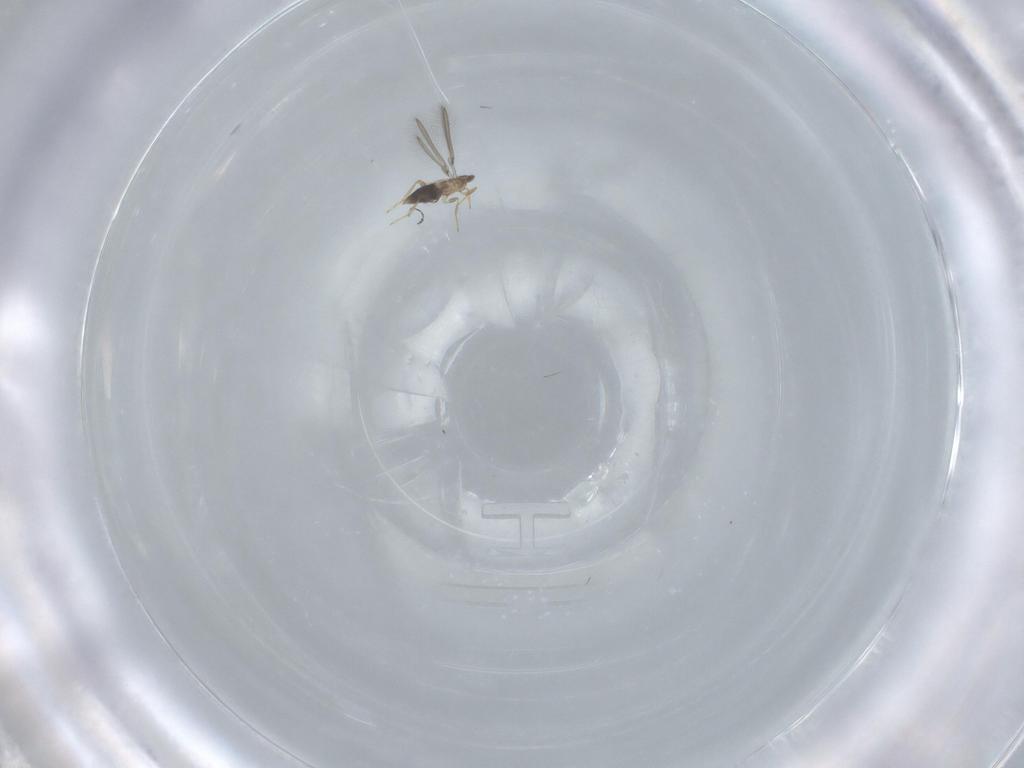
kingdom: Animalia
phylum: Arthropoda
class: Insecta
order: Hymenoptera
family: Mymaridae
